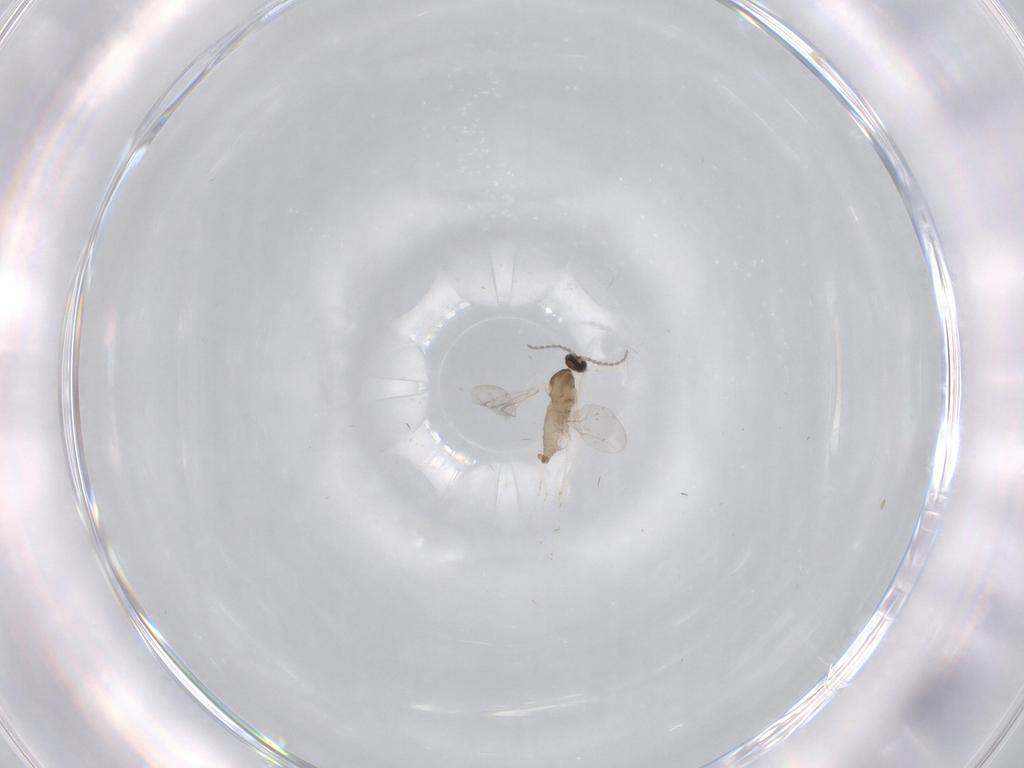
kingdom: Animalia
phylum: Arthropoda
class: Insecta
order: Diptera
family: Cecidomyiidae
